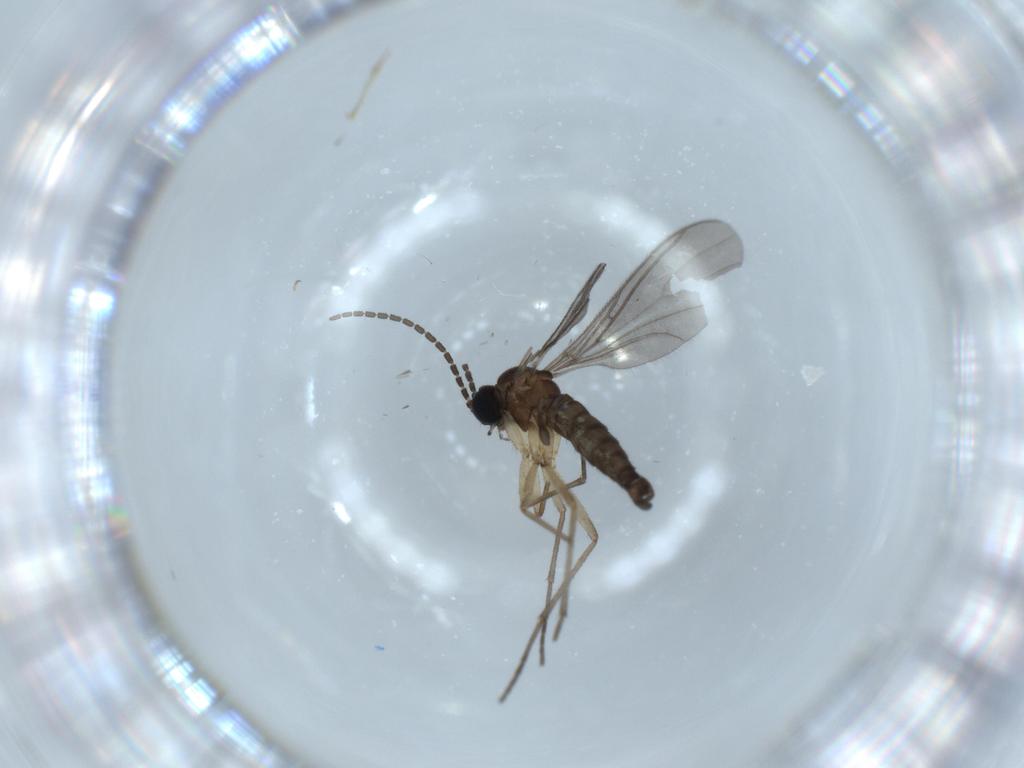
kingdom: Animalia
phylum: Arthropoda
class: Insecta
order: Diptera
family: Sciaridae
